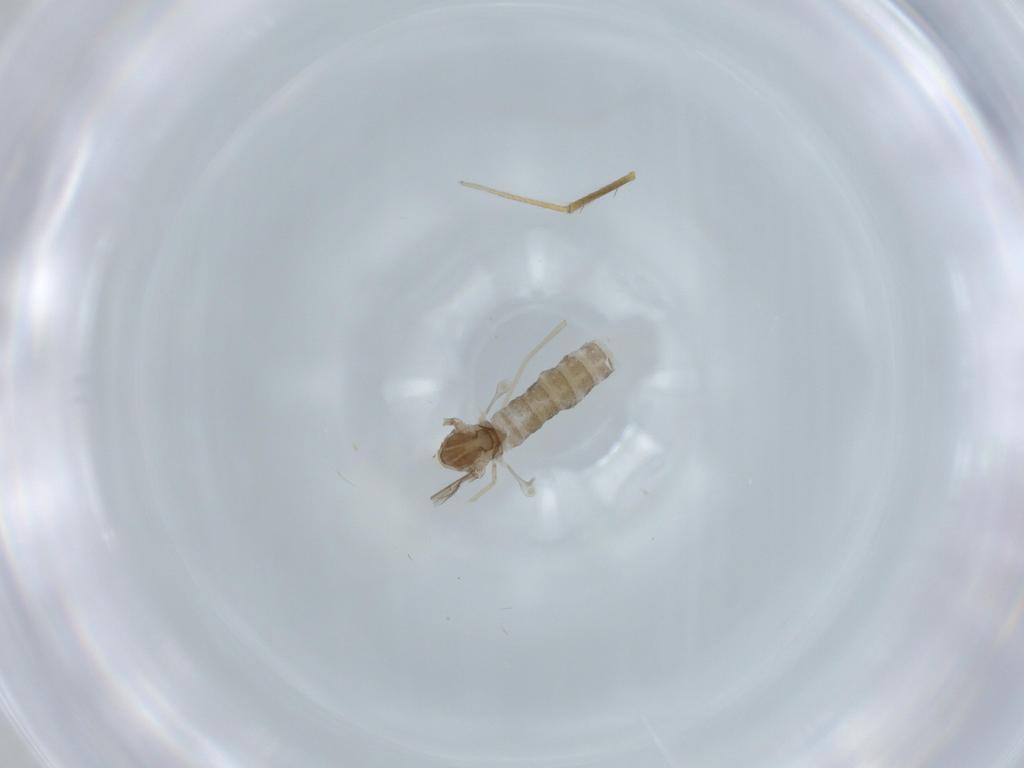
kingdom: Animalia
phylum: Arthropoda
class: Insecta
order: Diptera
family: Cecidomyiidae
